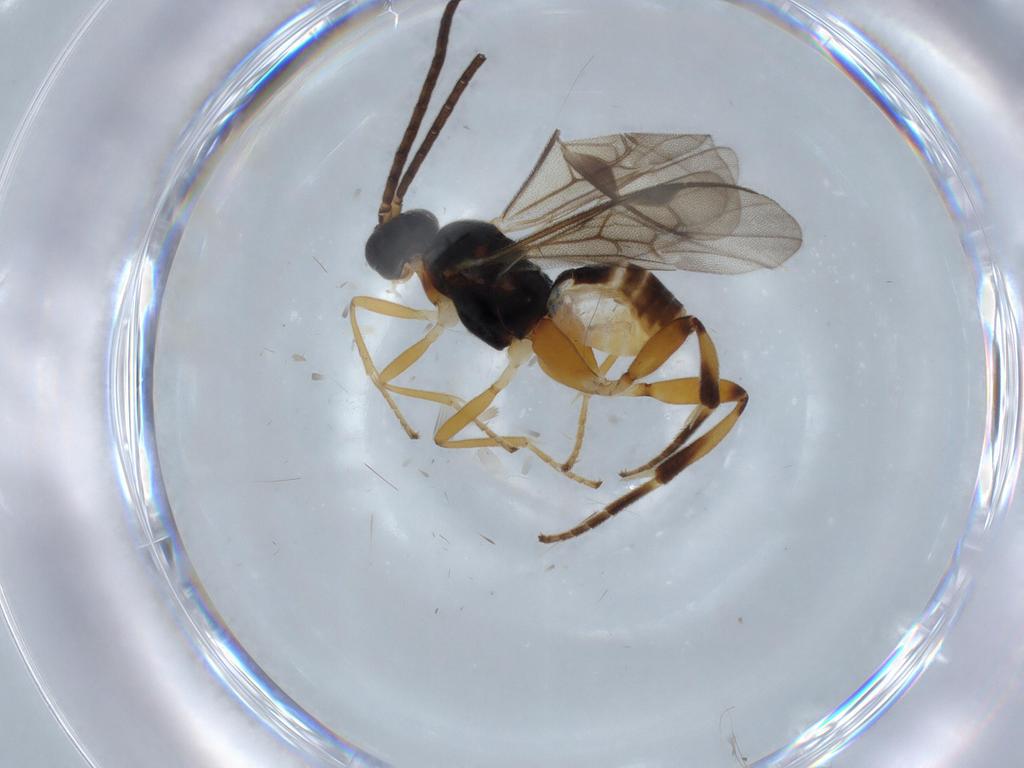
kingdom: Animalia
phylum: Arthropoda
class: Insecta
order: Hymenoptera
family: Braconidae
